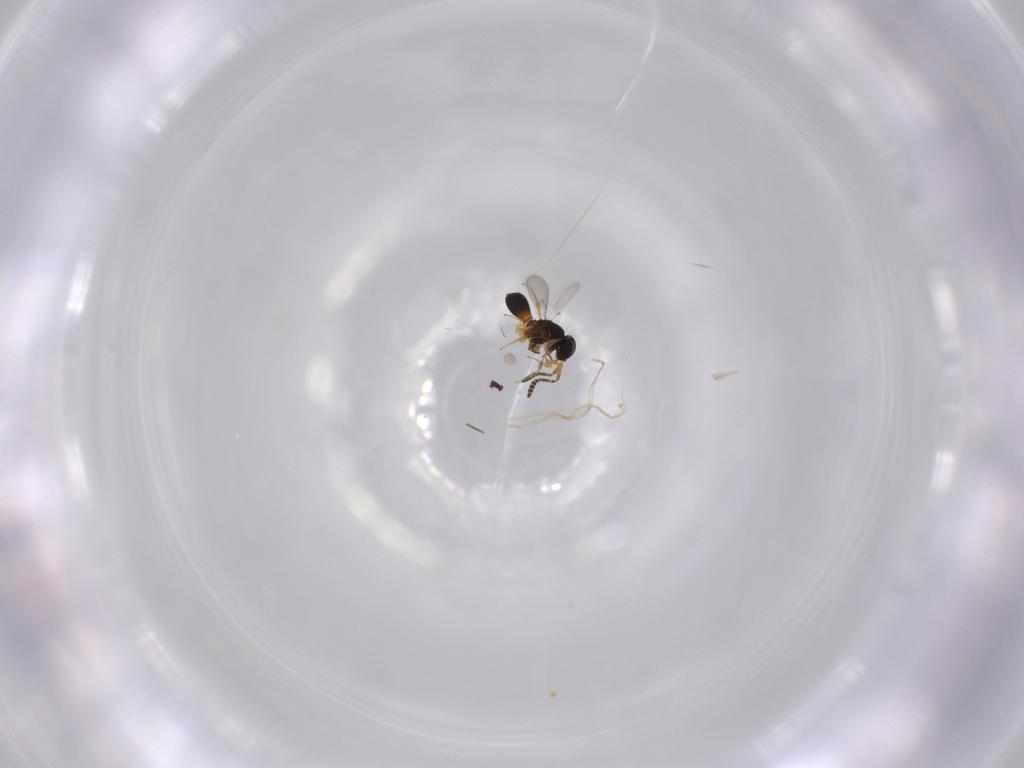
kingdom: Animalia
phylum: Arthropoda
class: Insecta
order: Hymenoptera
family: Scelionidae
